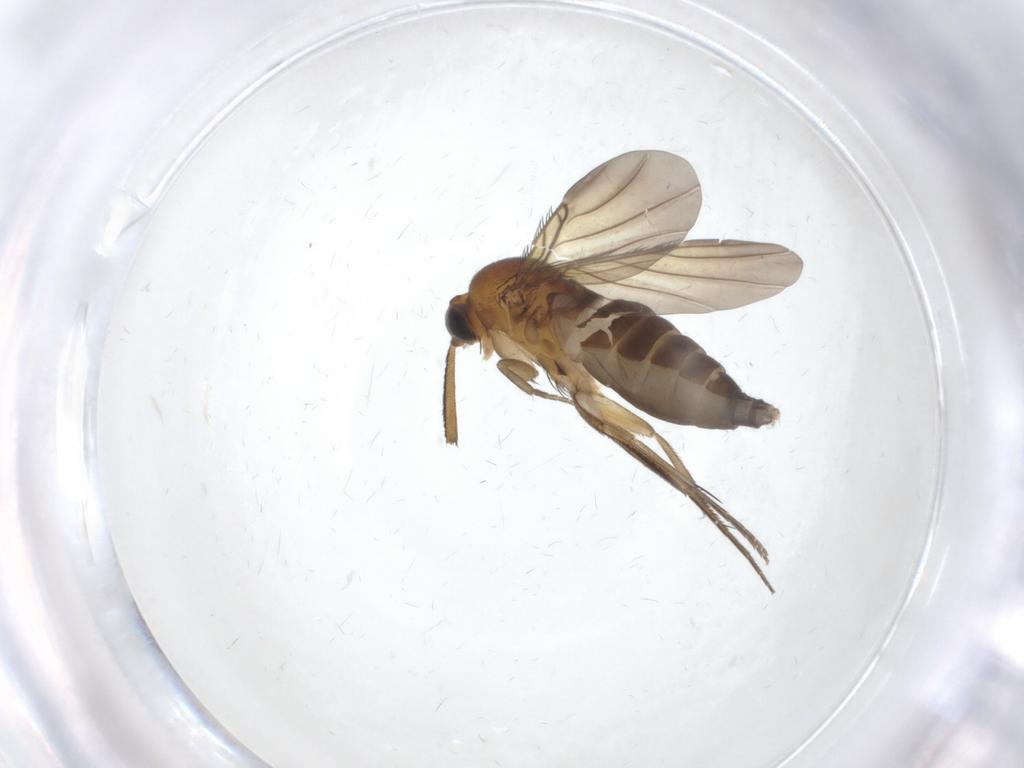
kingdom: Animalia
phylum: Arthropoda
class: Insecta
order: Diptera
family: Phoridae
